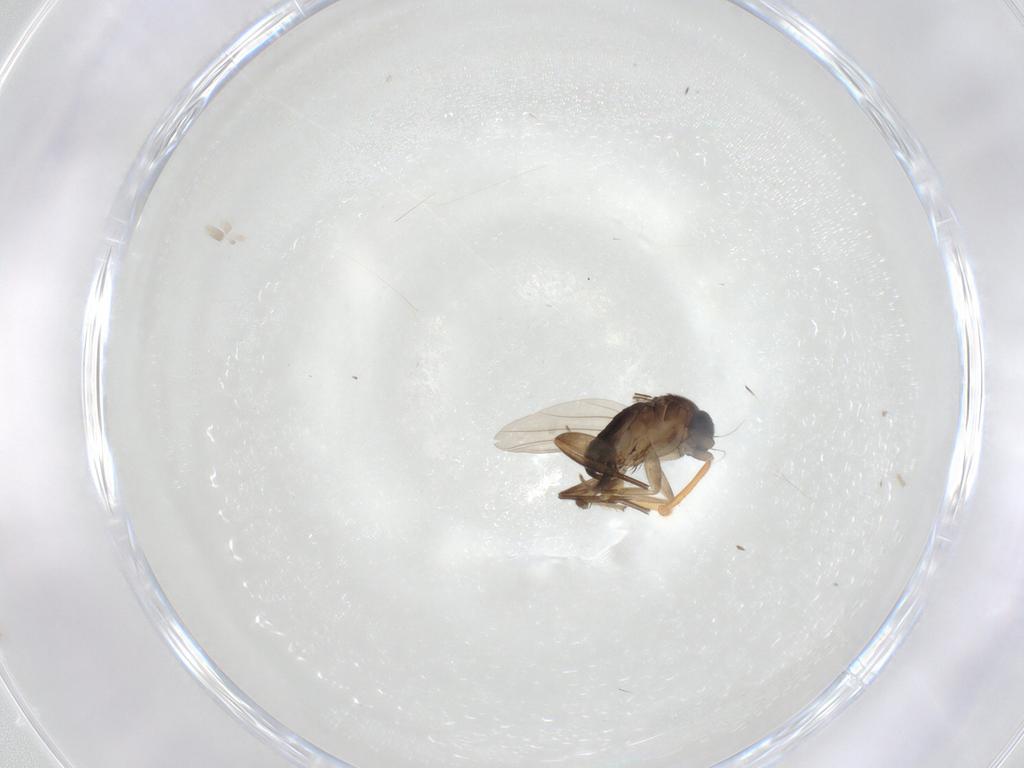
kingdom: Animalia
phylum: Arthropoda
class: Insecta
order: Diptera
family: Phoridae
